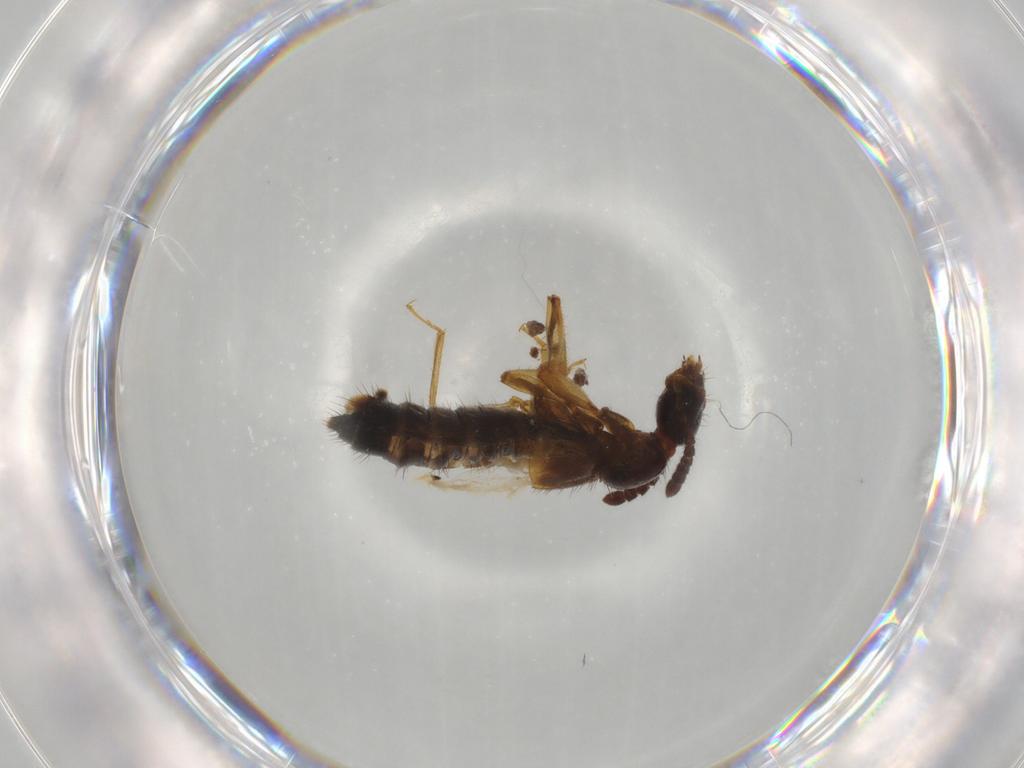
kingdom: Animalia
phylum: Arthropoda
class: Insecta
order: Coleoptera
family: Staphylinidae
